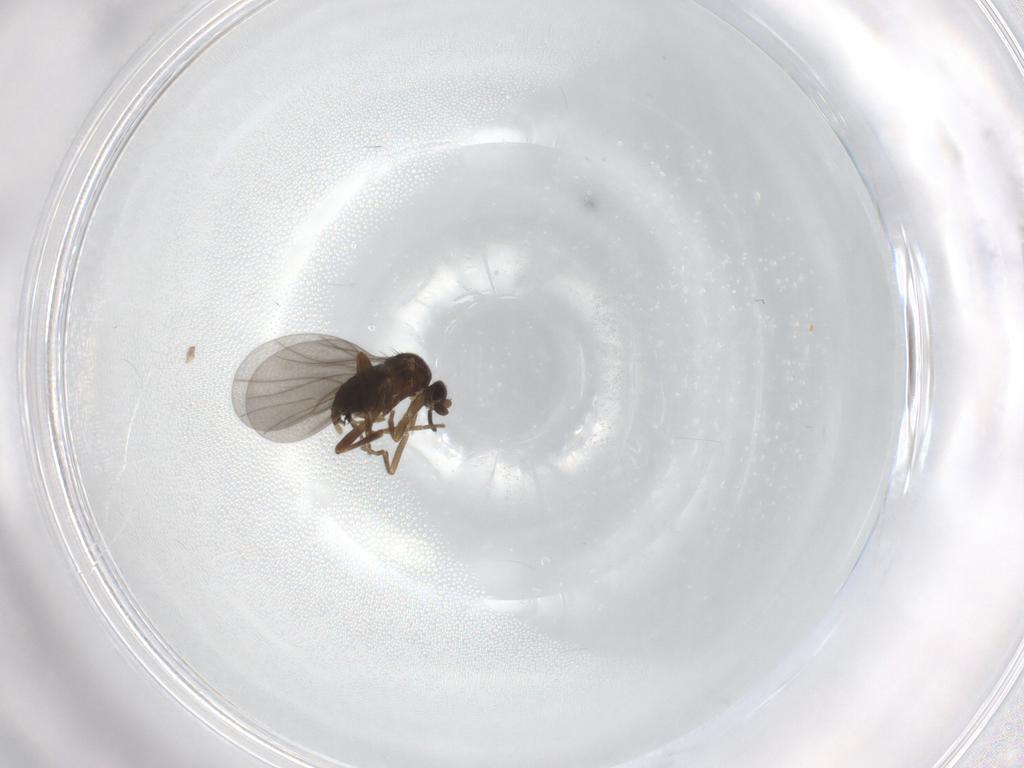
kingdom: Animalia
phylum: Arthropoda
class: Insecta
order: Diptera
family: Phoridae
